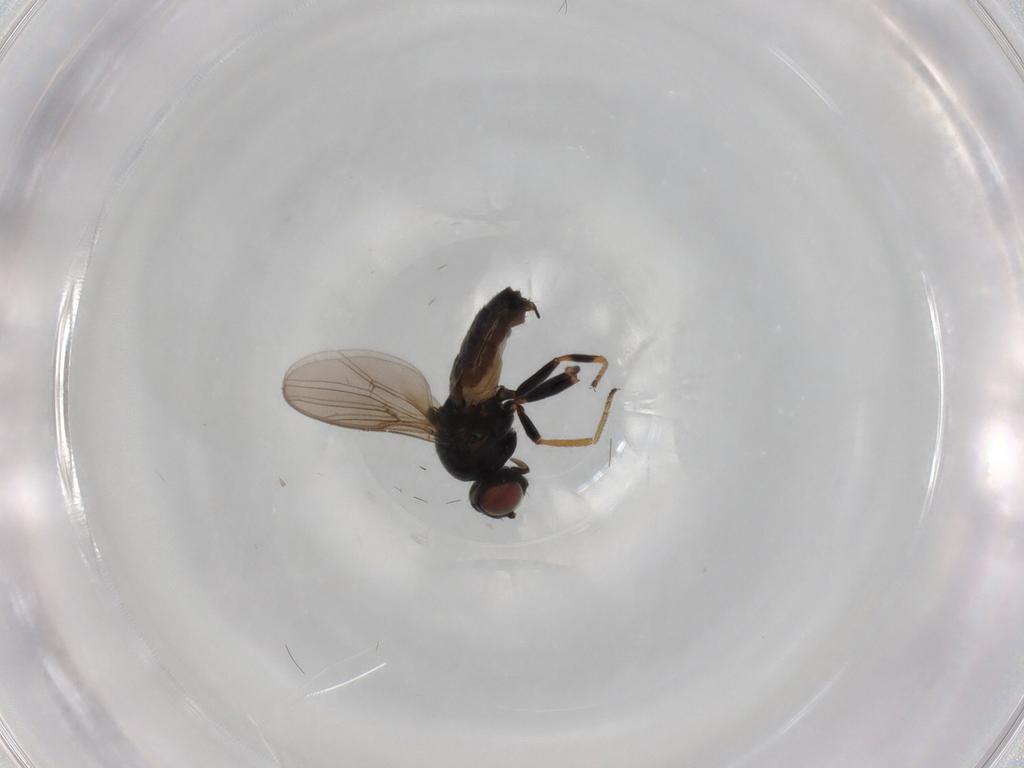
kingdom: Animalia
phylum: Arthropoda
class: Insecta
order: Diptera
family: Chloropidae
